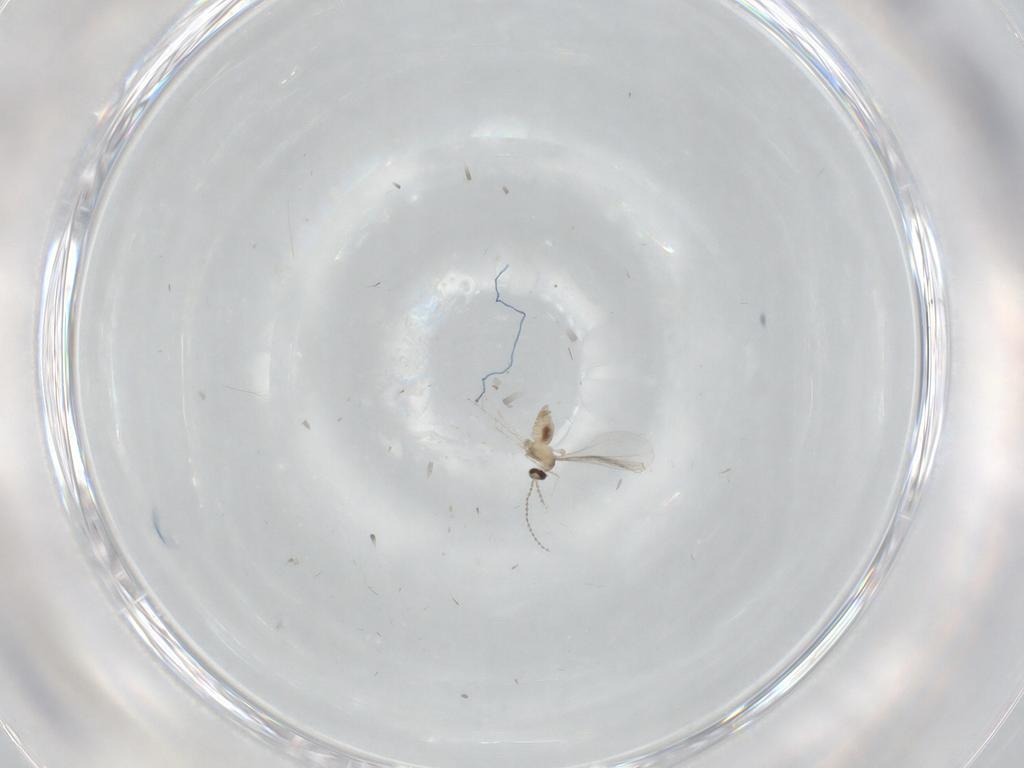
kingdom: Animalia
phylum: Arthropoda
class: Insecta
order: Diptera
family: Cecidomyiidae
